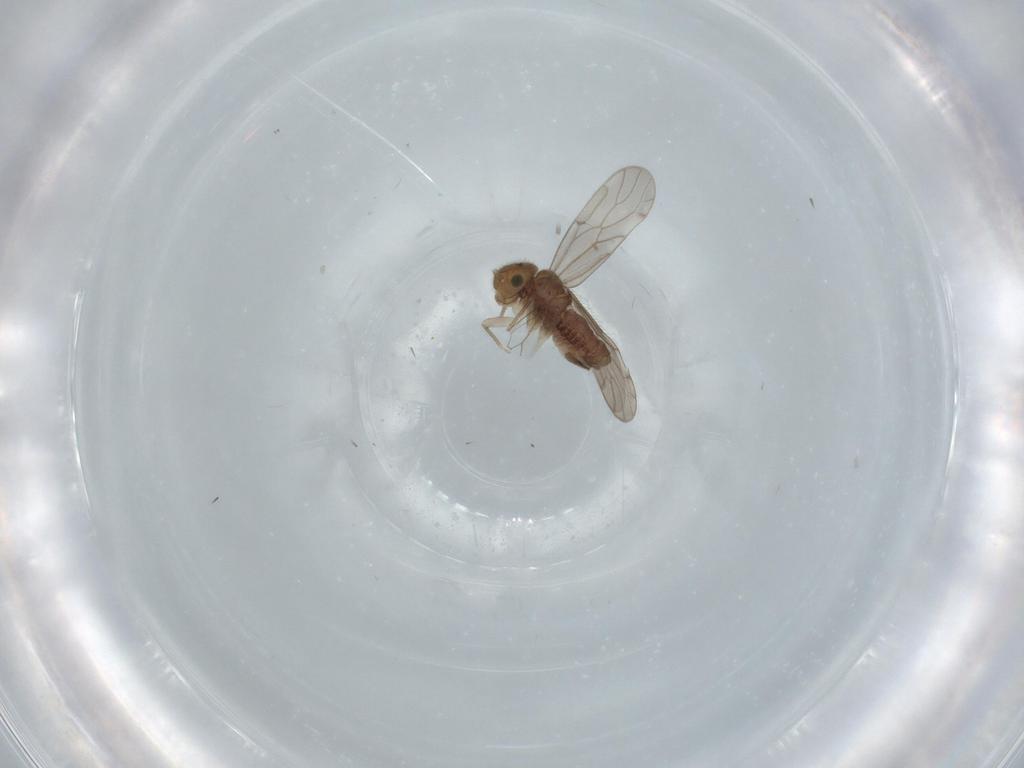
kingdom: Animalia
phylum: Arthropoda
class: Insecta
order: Psocodea
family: Ectopsocidae
